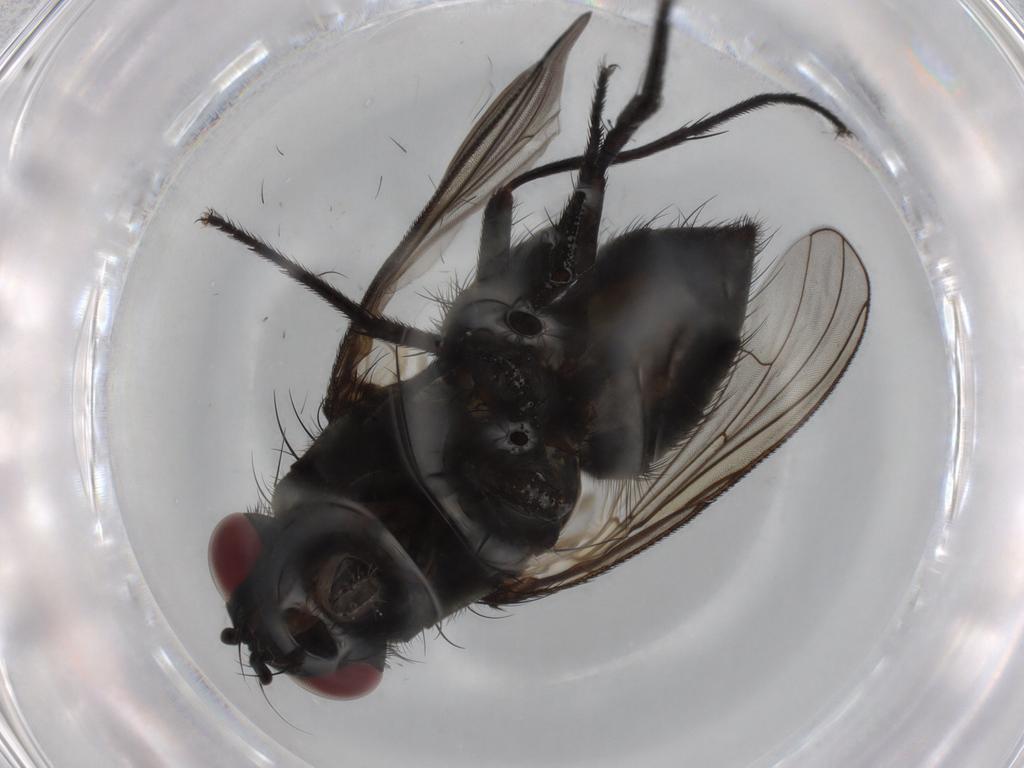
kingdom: Animalia
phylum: Arthropoda
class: Insecta
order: Diptera
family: Muscidae
